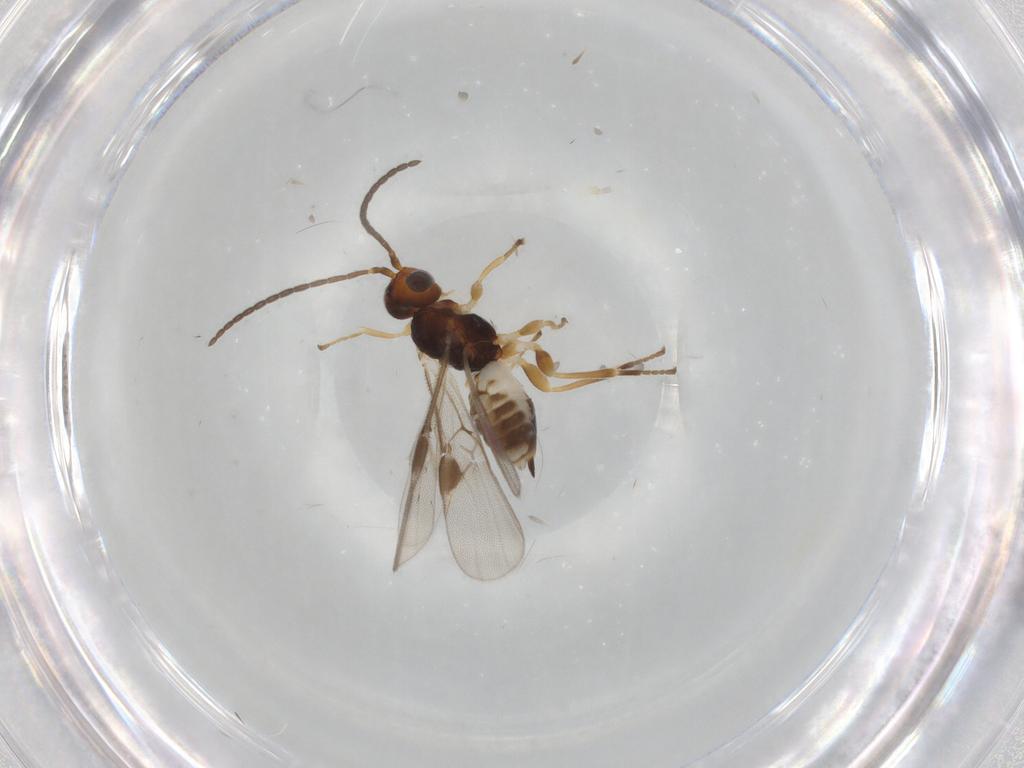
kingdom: Animalia
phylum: Arthropoda
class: Insecta
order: Hymenoptera
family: Braconidae
